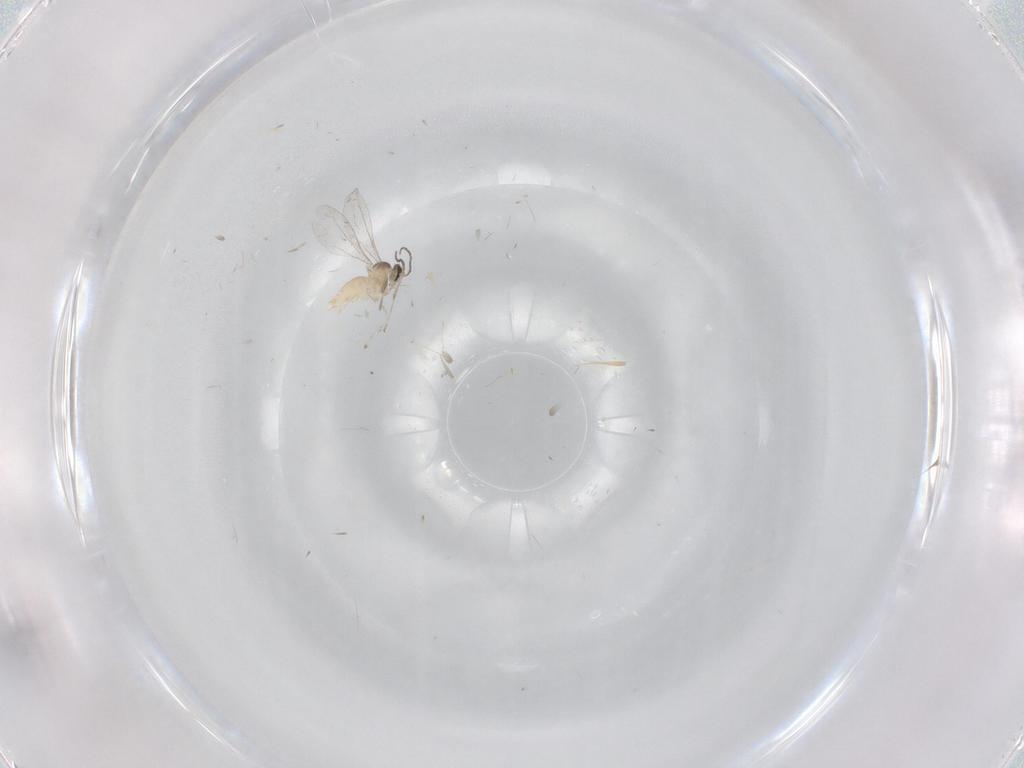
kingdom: Animalia
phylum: Arthropoda
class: Insecta
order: Diptera
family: Cecidomyiidae
